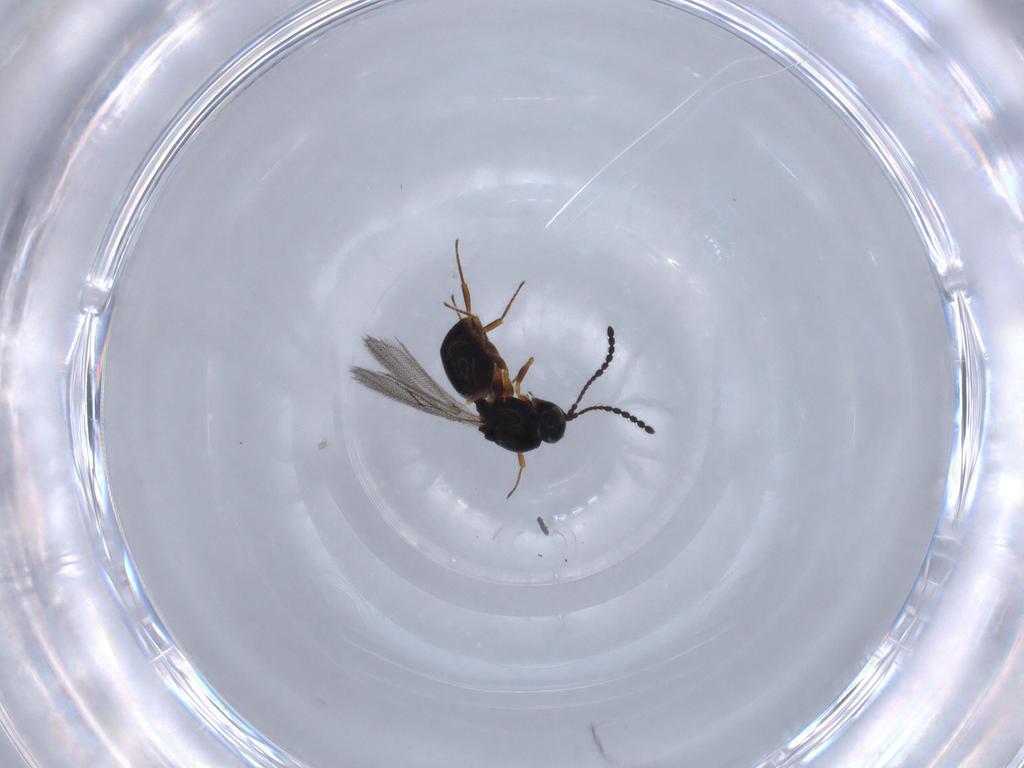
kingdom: Animalia
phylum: Arthropoda
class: Insecta
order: Hymenoptera
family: Figitidae
